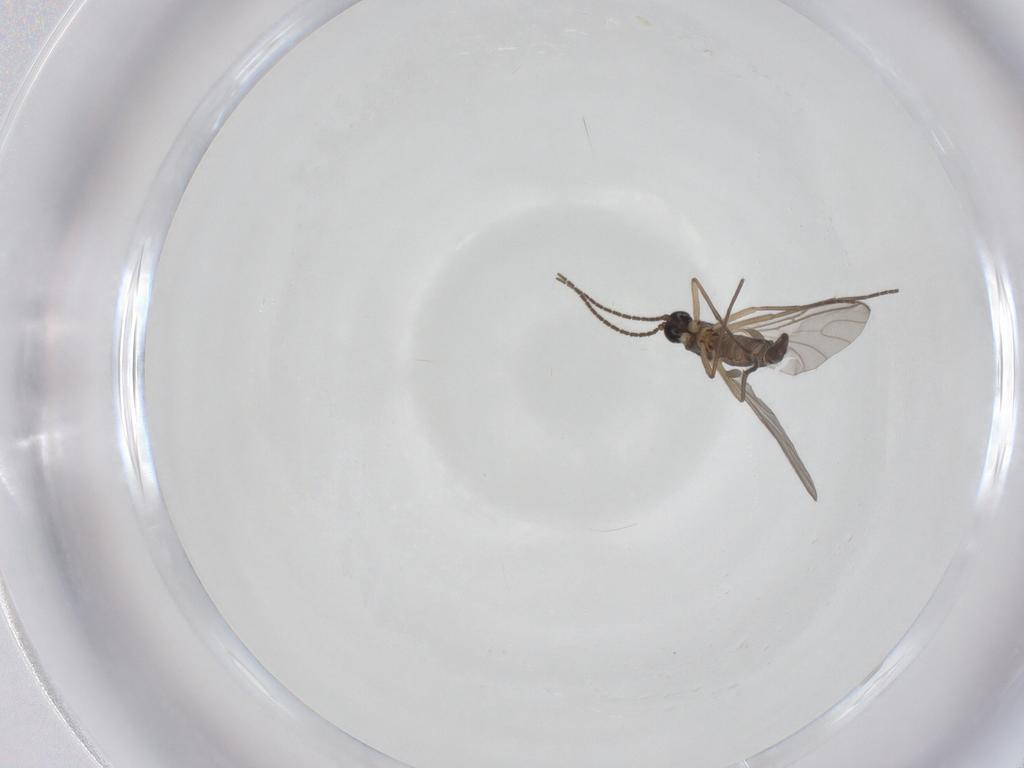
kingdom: Animalia
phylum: Arthropoda
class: Insecta
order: Diptera
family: Sciaridae
